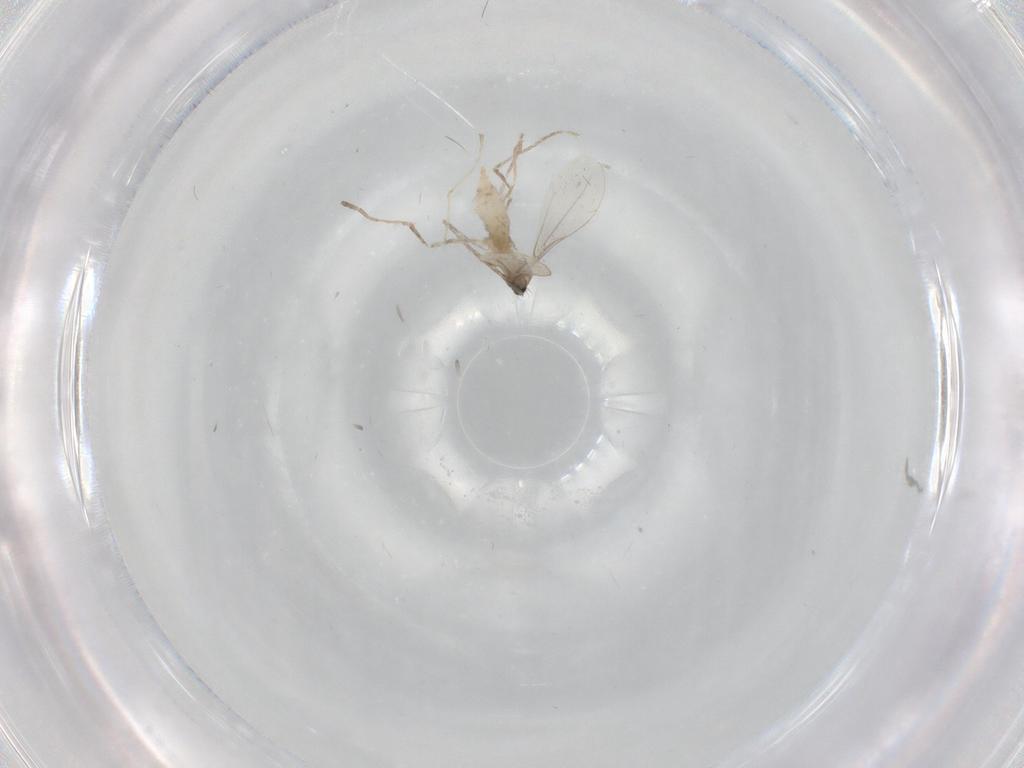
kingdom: Animalia
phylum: Arthropoda
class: Insecta
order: Diptera
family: Cecidomyiidae
